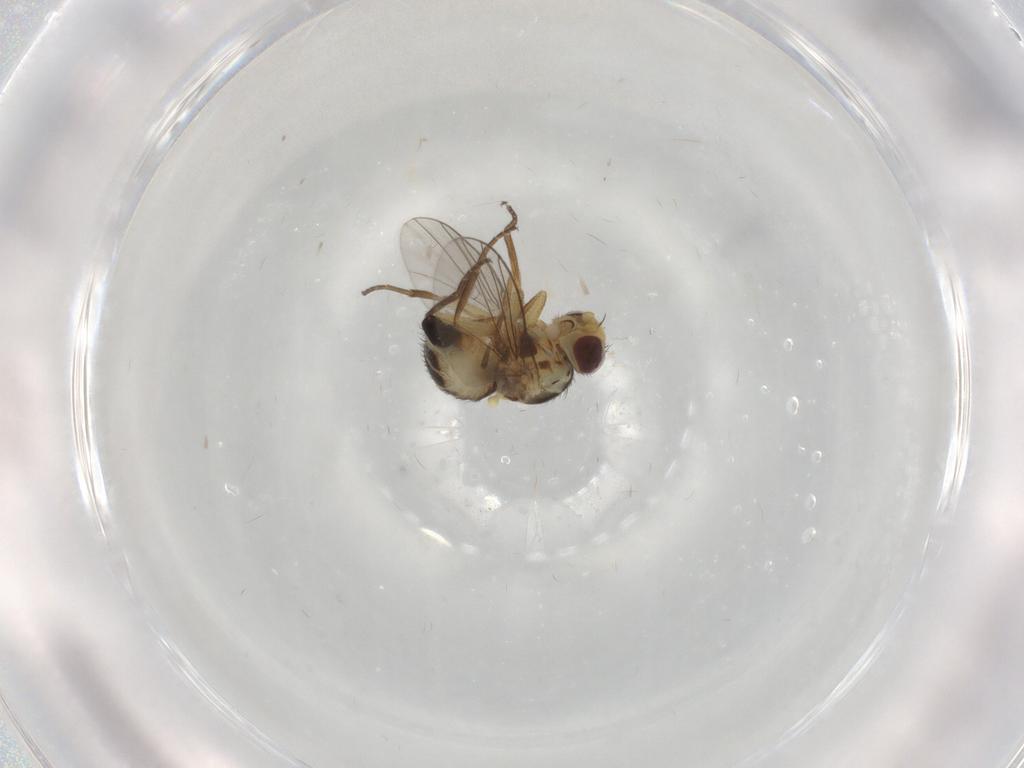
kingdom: Animalia
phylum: Arthropoda
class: Insecta
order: Diptera
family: Agromyzidae
